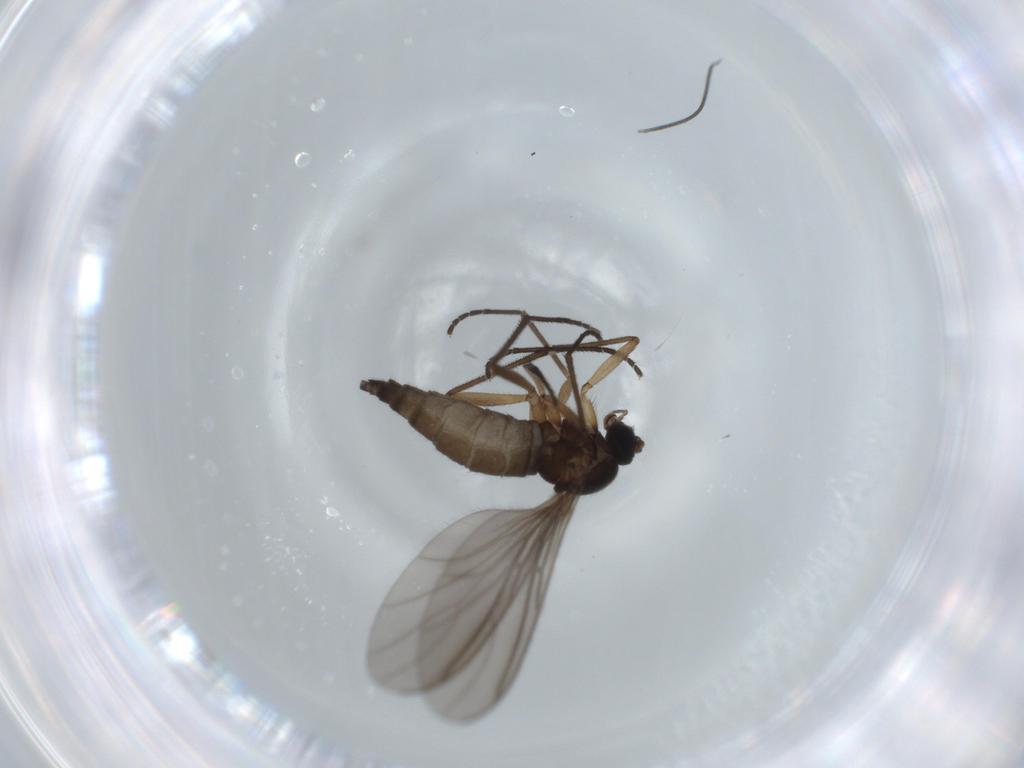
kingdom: Animalia
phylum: Arthropoda
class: Insecta
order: Diptera
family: Sciaridae
